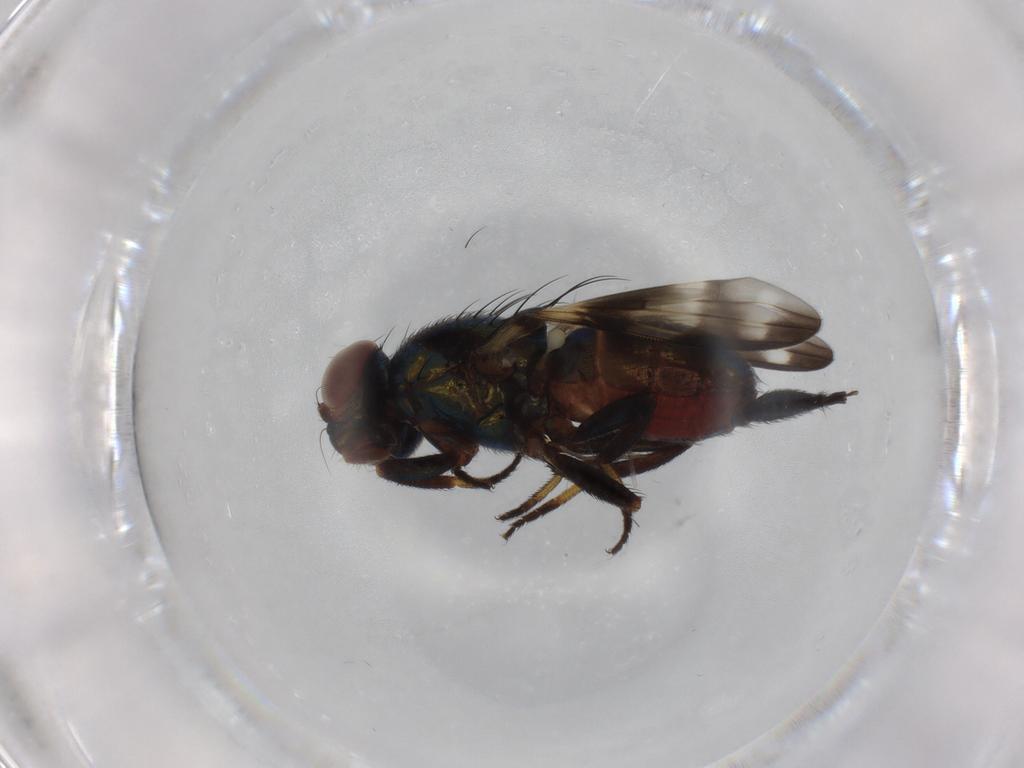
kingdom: Animalia
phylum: Arthropoda
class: Insecta
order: Diptera
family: Ulidiidae
